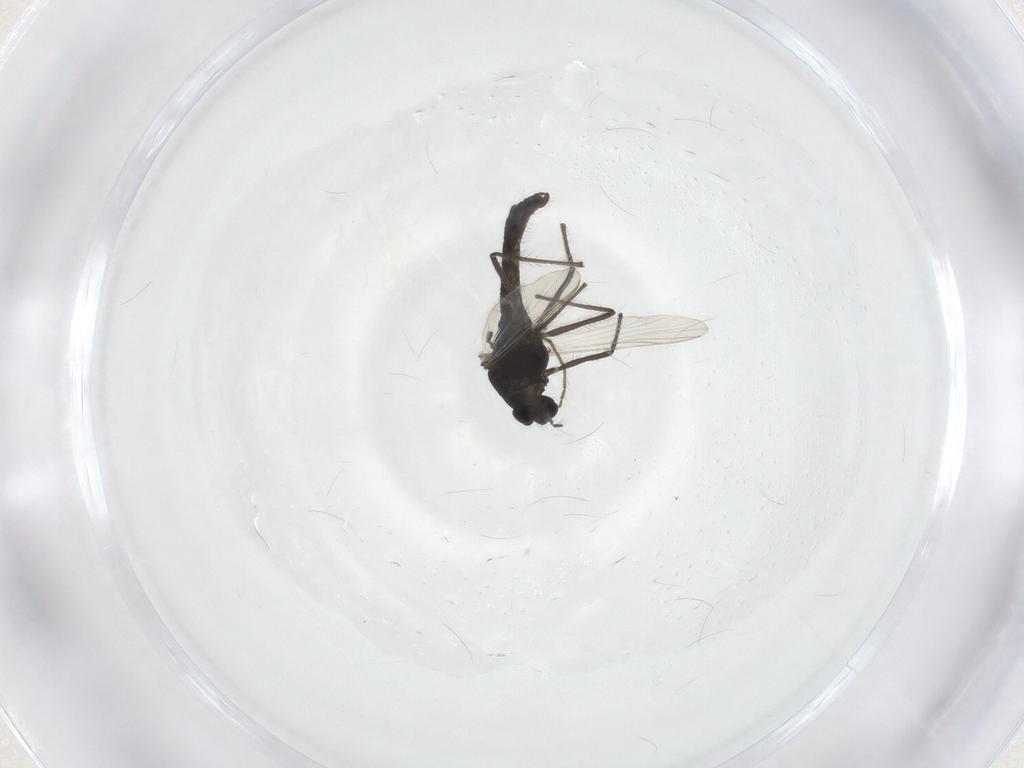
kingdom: Animalia
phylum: Arthropoda
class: Insecta
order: Diptera
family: Chironomidae
